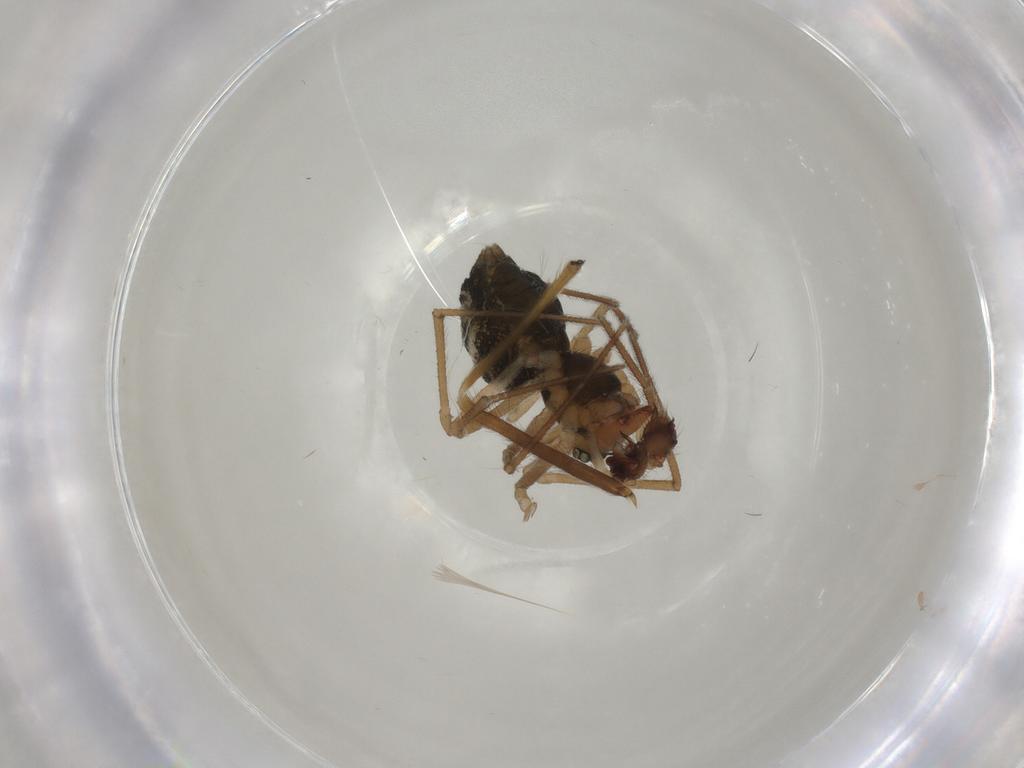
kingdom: Animalia
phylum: Arthropoda
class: Arachnida
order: Araneae
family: Linyphiidae
